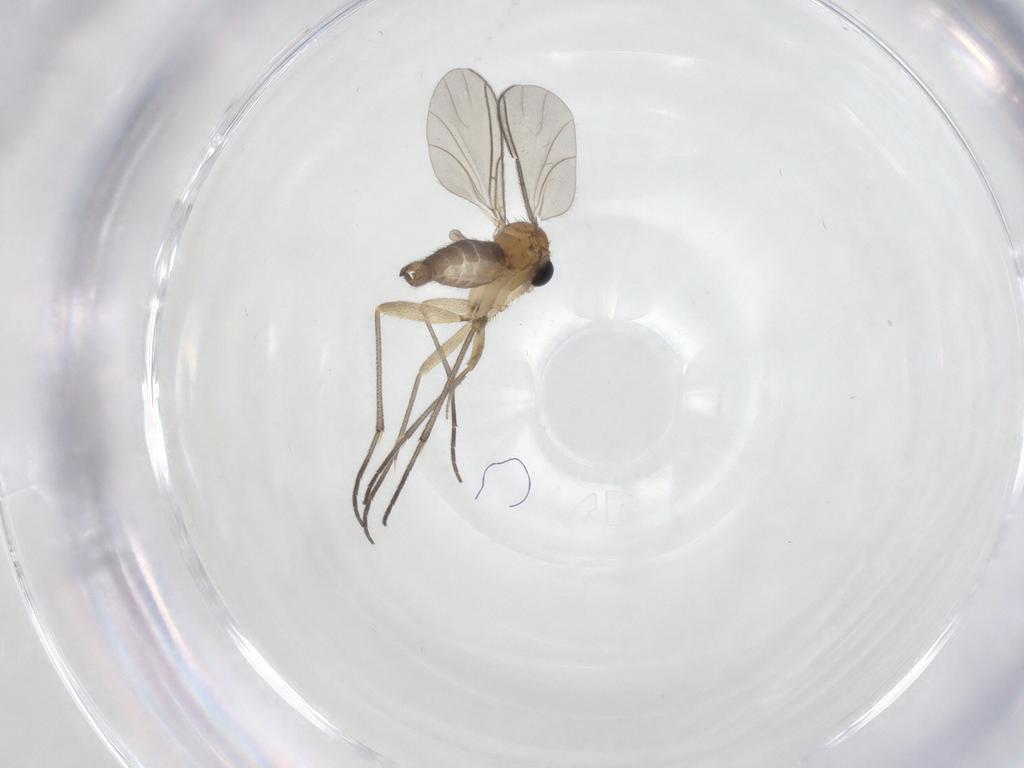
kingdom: Animalia
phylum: Arthropoda
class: Insecta
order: Diptera
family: Sciaridae
